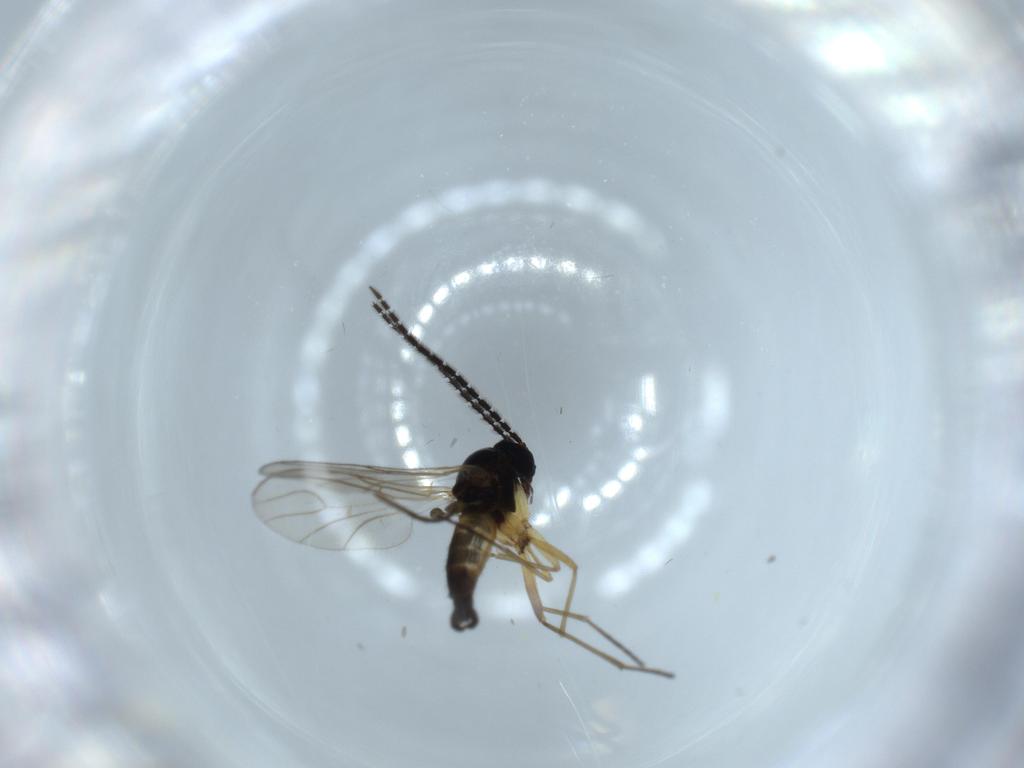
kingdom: Animalia
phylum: Arthropoda
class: Insecta
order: Diptera
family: Sciaridae
